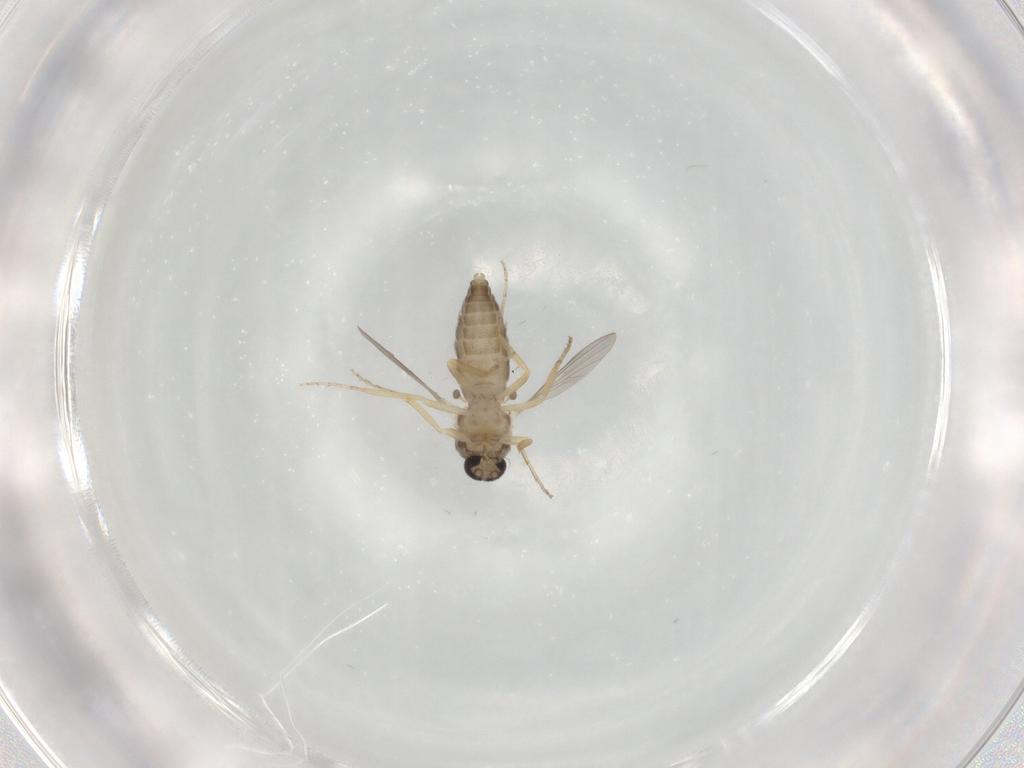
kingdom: Animalia
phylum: Arthropoda
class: Insecta
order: Diptera
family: Ceratopogonidae
